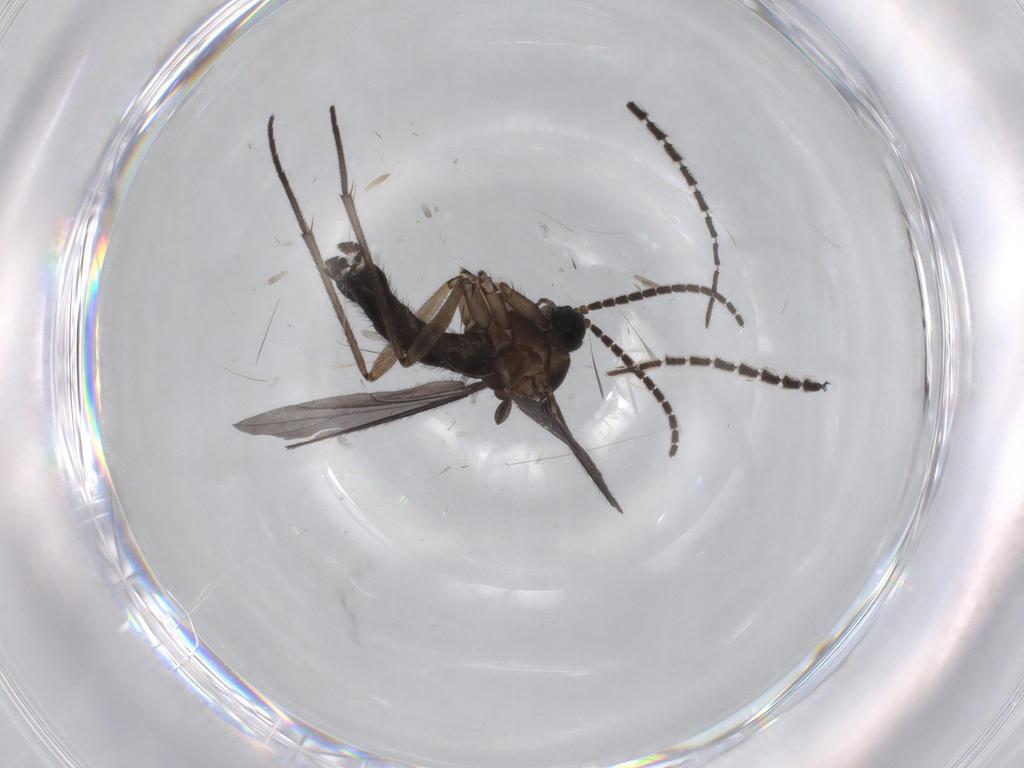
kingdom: Animalia
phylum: Arthropoda
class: Insecta
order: Diptera
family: Sciaridae
